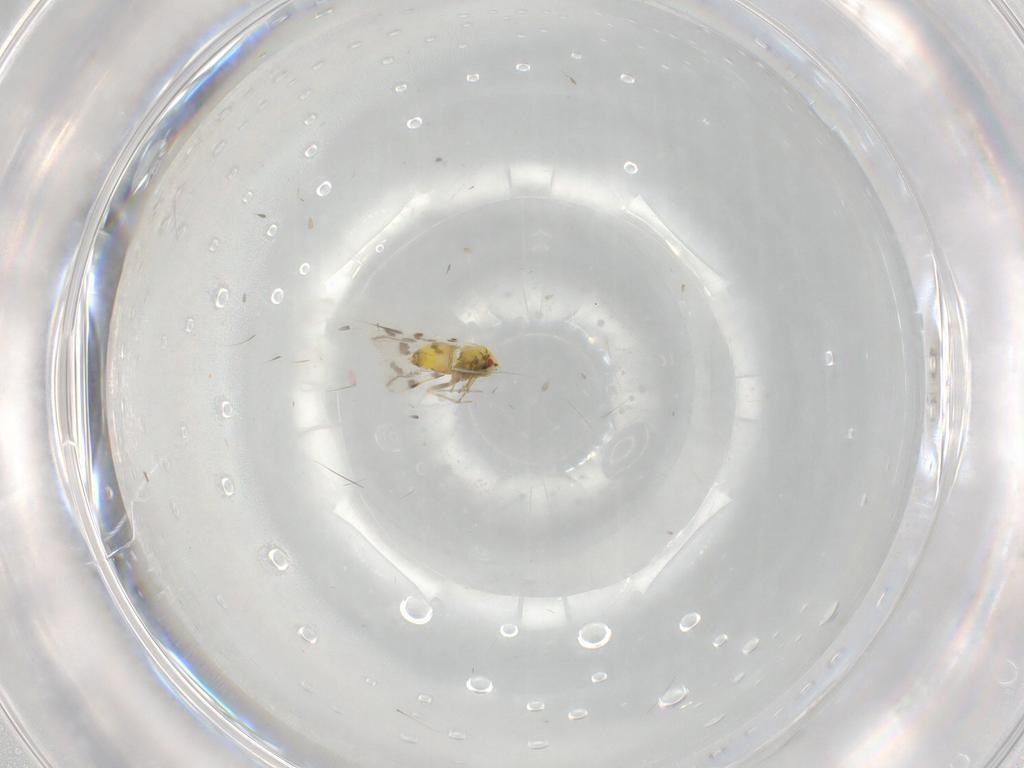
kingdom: Animalia
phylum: Arthropoda
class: Insecta
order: Hemiptera
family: Aleyrodidae
